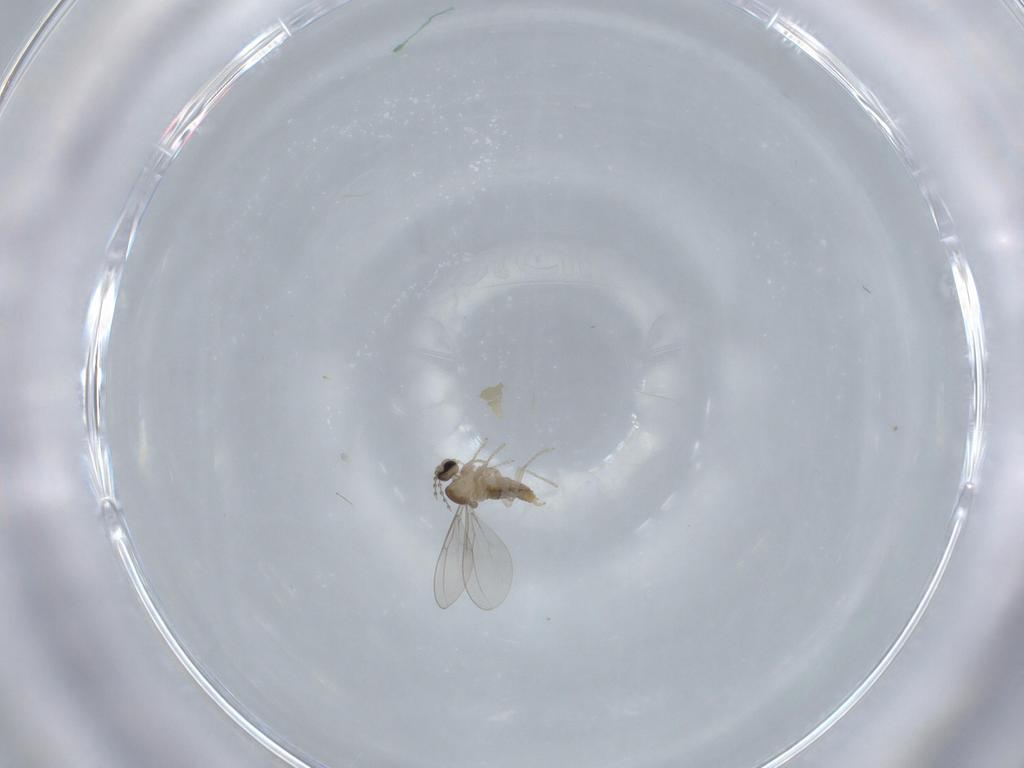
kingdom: Animalia
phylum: Arthropoda
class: Insecta
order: Diptera
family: Cecidomyiidae
